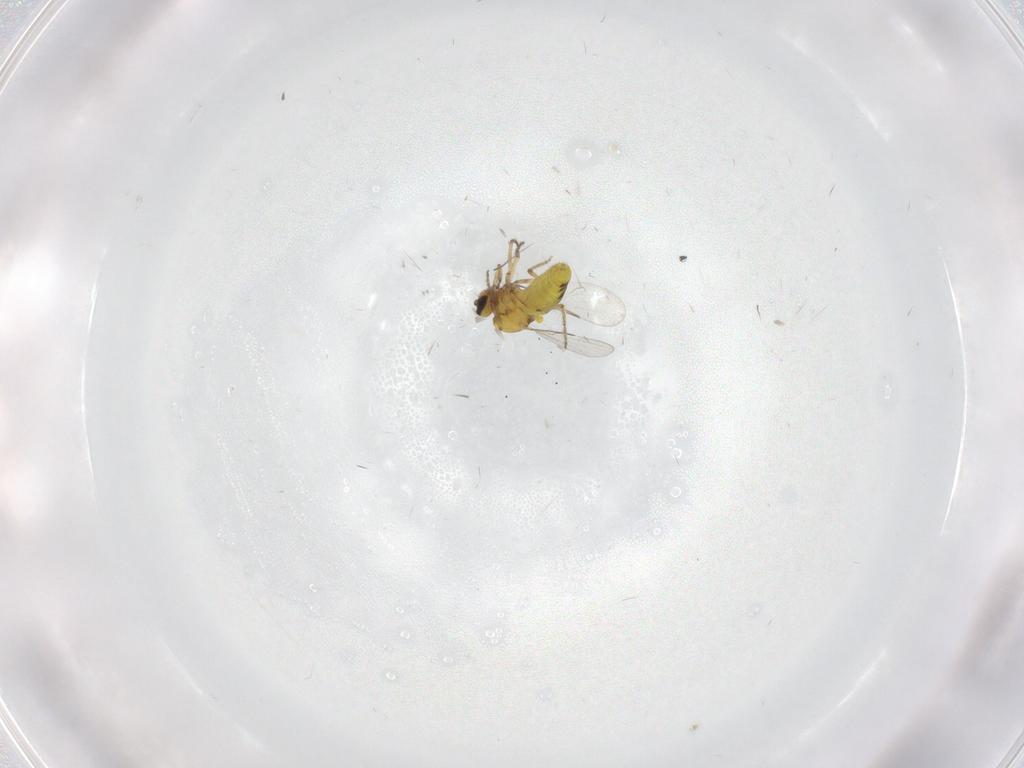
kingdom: Animalia
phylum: Arthropoda
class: Insecta
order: Diptera
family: Ceratopogonidae
